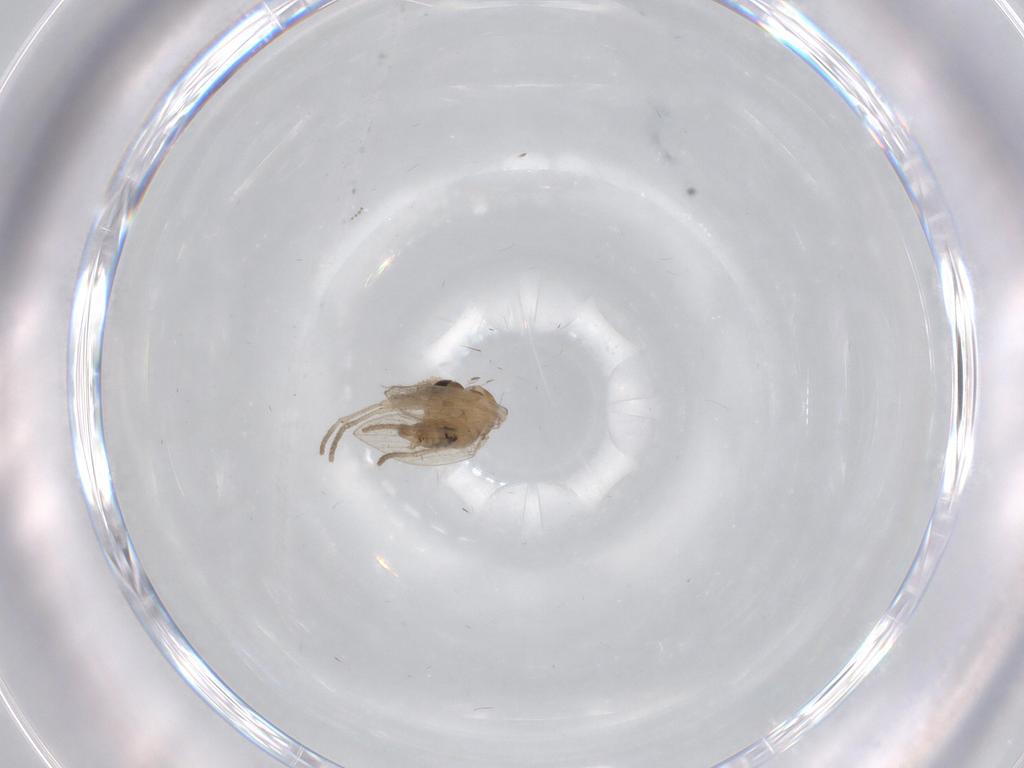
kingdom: Animalia
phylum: Arthropoda
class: Insecta
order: Diptera
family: Psychodidae
